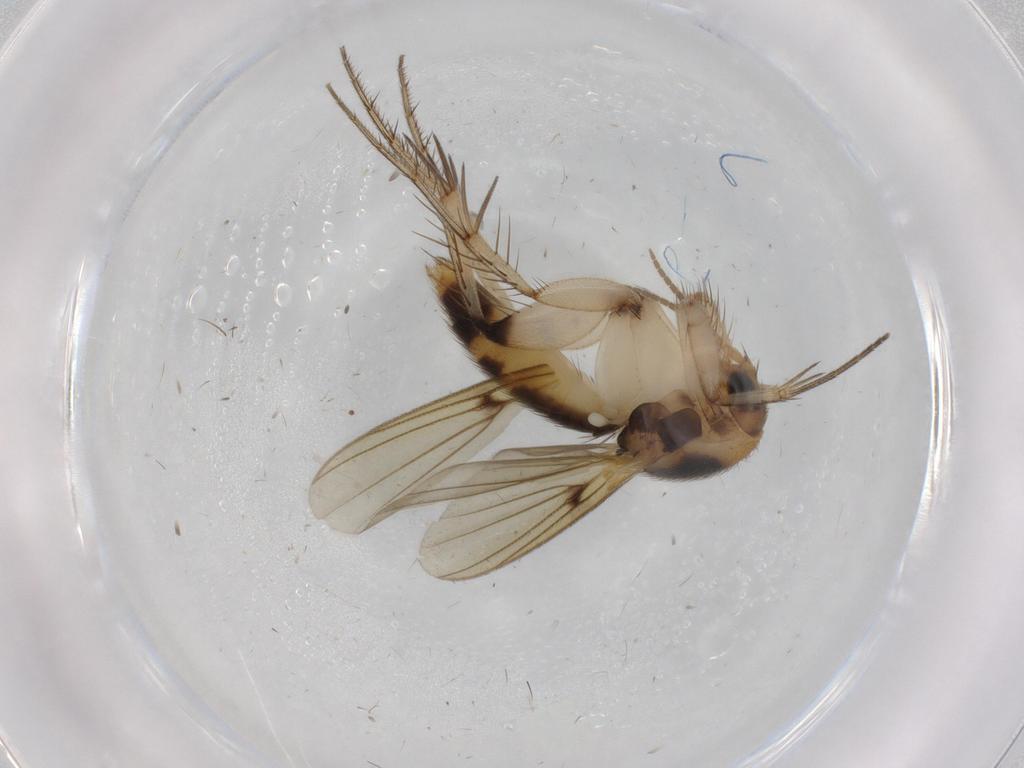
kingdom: Animalia
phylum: Arthropoda
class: Insecta
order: Diptera
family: Mycetophilidae
